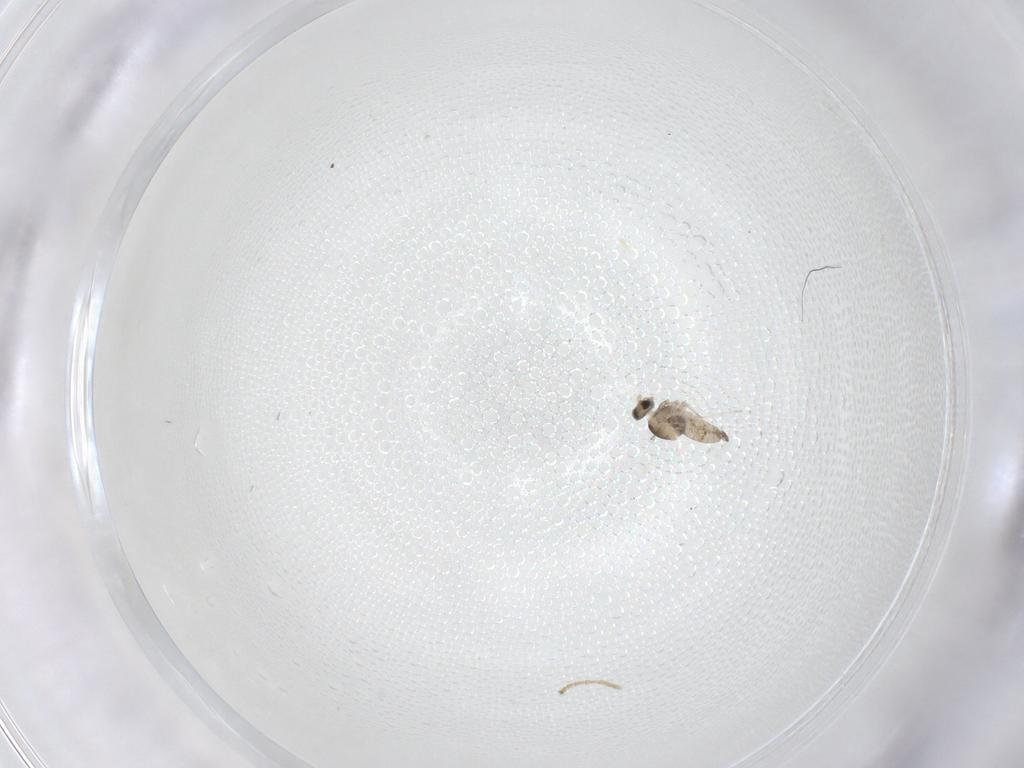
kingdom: Animalia
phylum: Arthropoda
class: Insecta
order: Diptera
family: Cecidomyiidae
